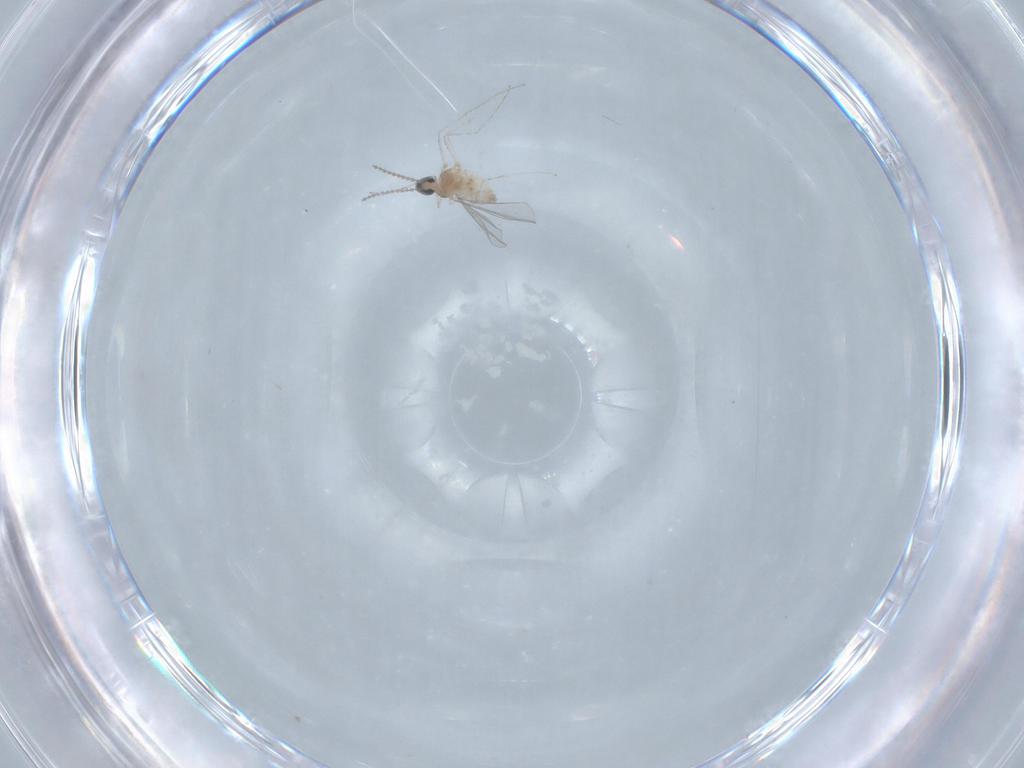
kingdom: Animalia
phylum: Arthropoda
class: Insecta
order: Diptera
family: Cecidomyiidae
